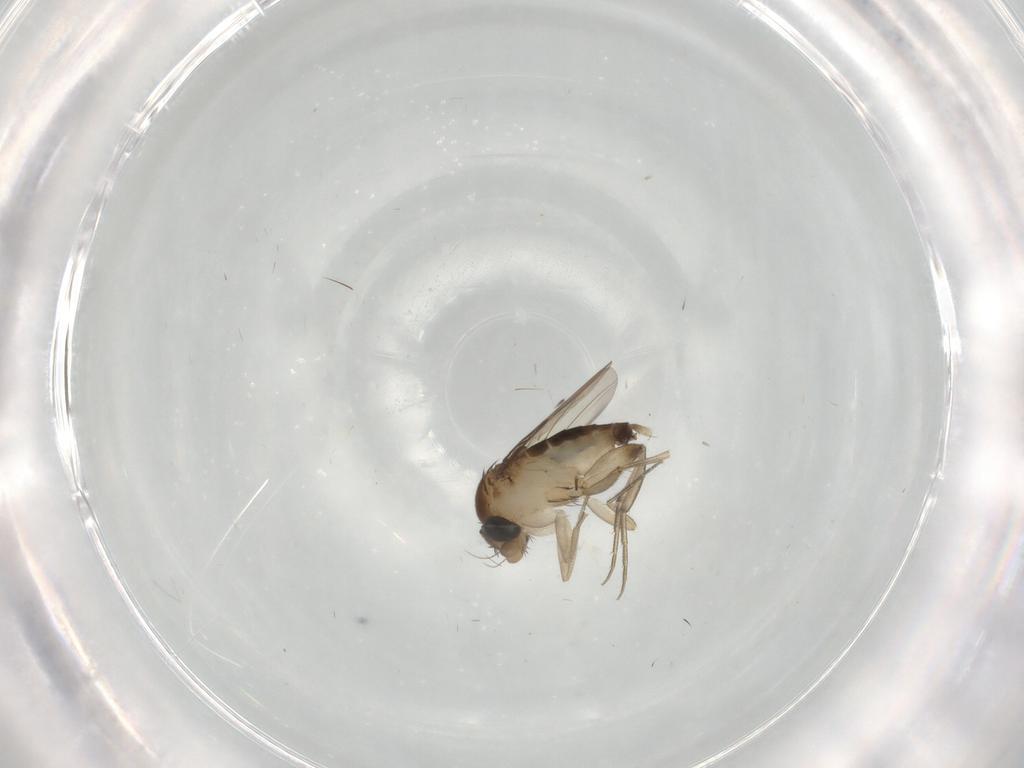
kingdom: Animalia
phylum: Arthropoda
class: Insecta
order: Diptera
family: Phoridae
